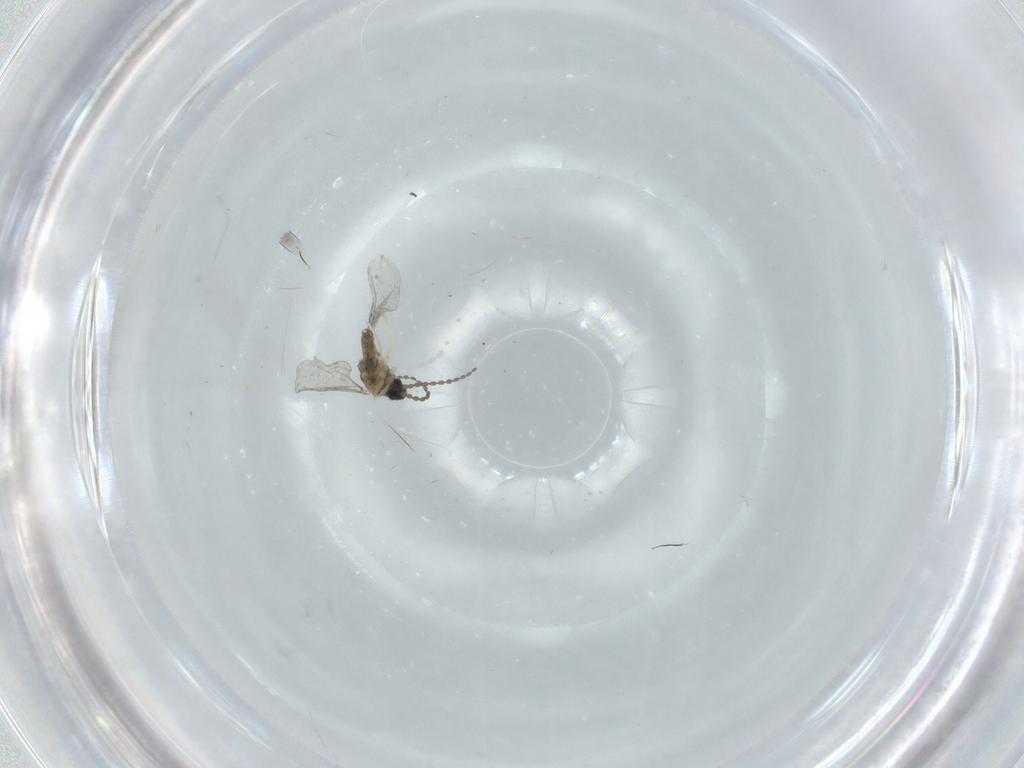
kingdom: Animalia
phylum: Arthropoda
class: Insecta
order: Diptera
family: Cecidomyiidae
